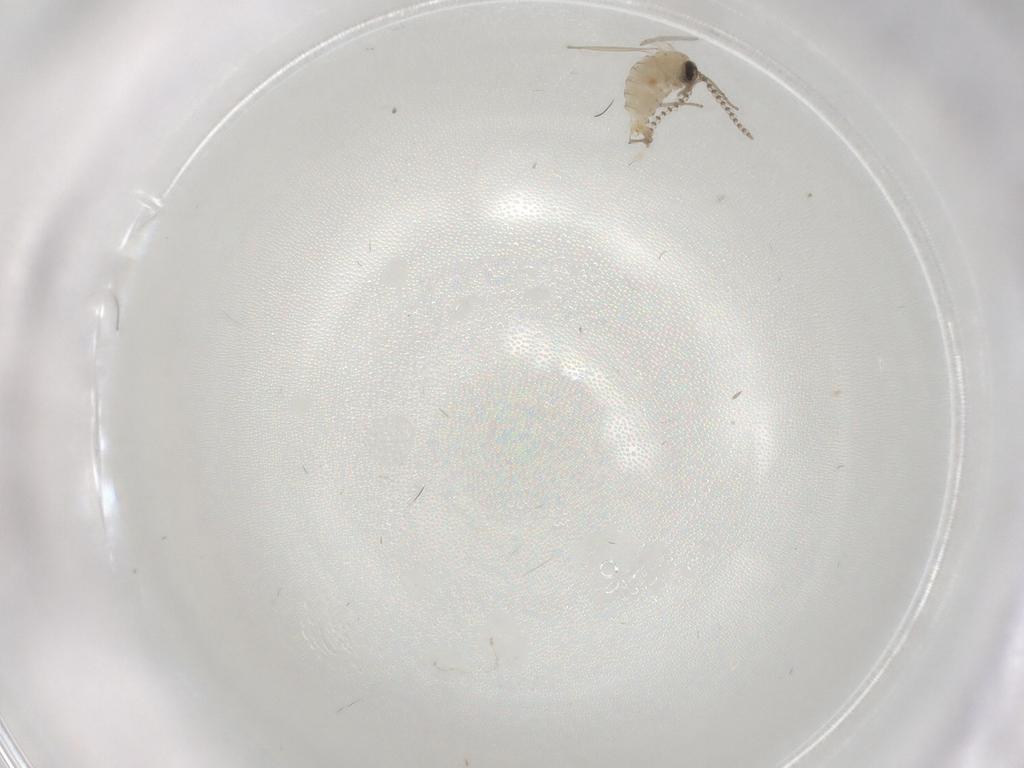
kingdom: Animalia
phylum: Arthropoda
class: Insecta
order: Diptera
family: Psychodidae
